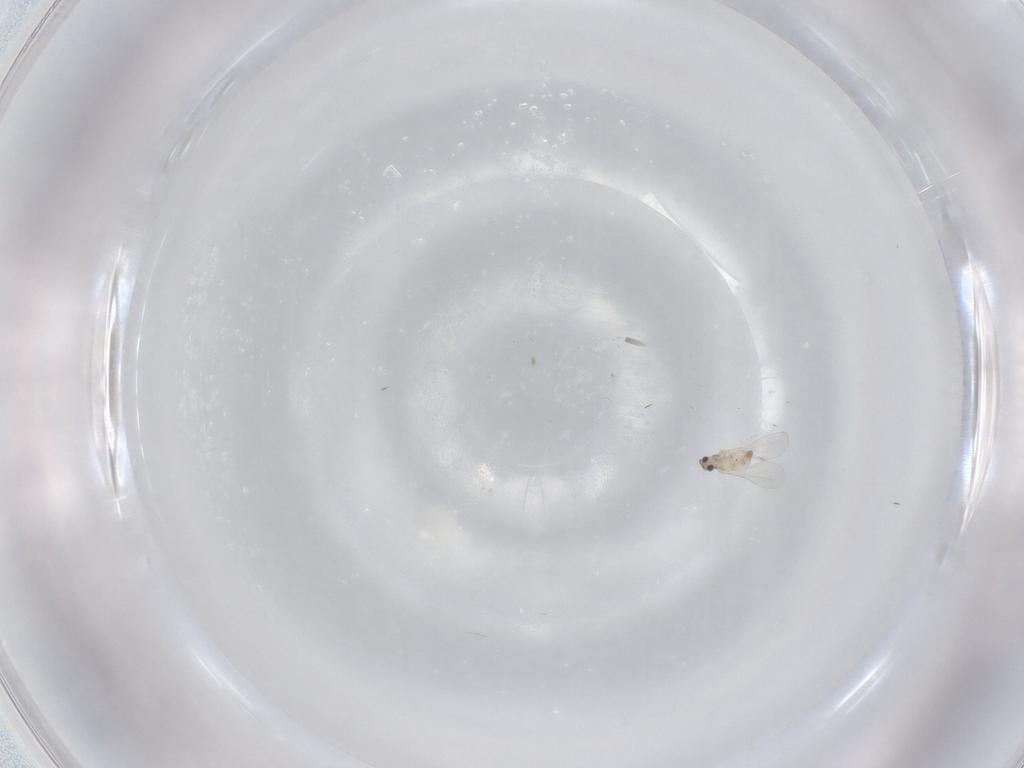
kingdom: Animalia
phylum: Arthropoda
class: Insecta
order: Diptera
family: Cecidomyiidae
